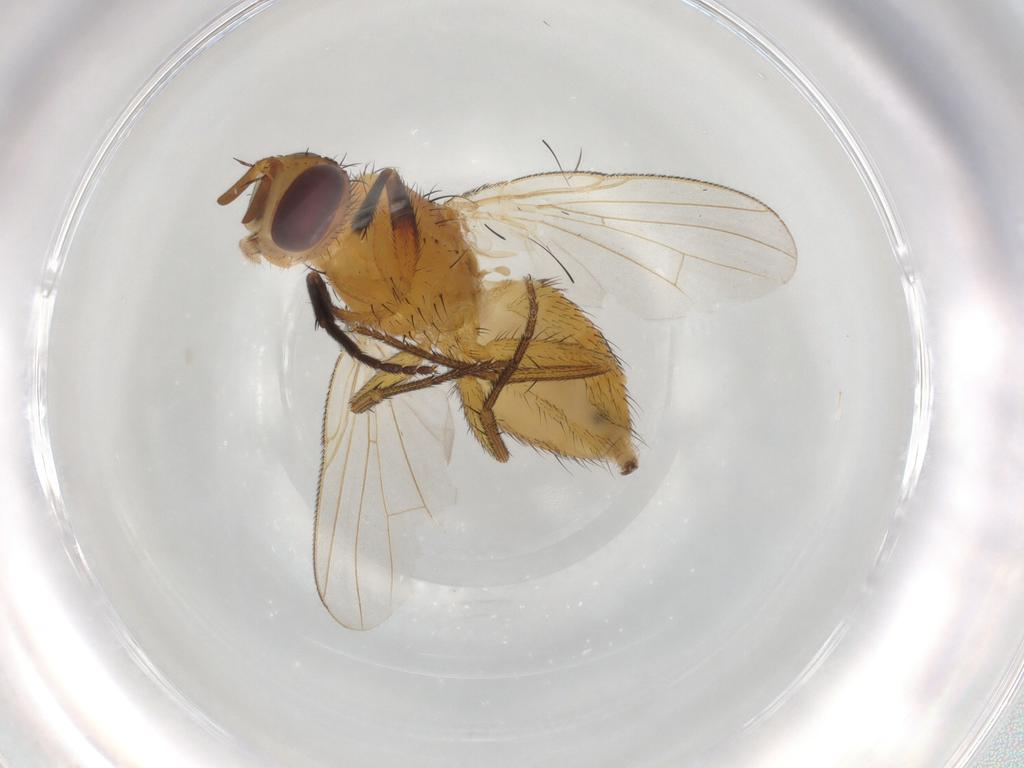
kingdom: Animalia
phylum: Arthropoda
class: Insecta
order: Diptera
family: Muscidae
